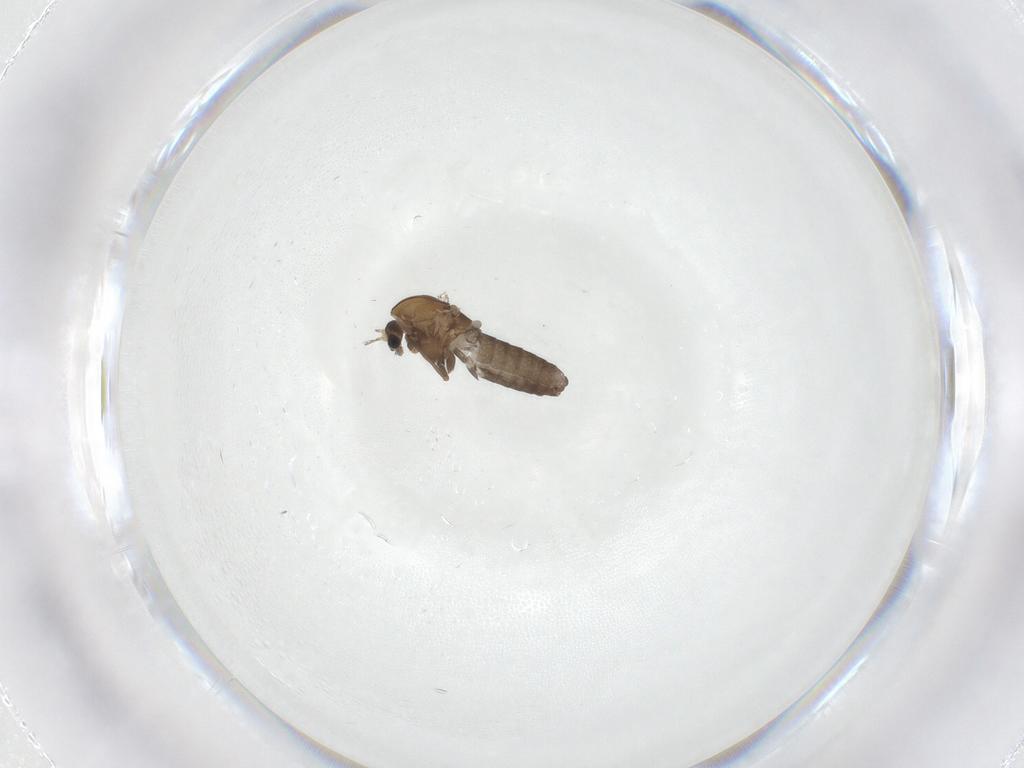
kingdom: Animalia
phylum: Arthropoda
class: Insecta
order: Diptera
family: Chironomidae
